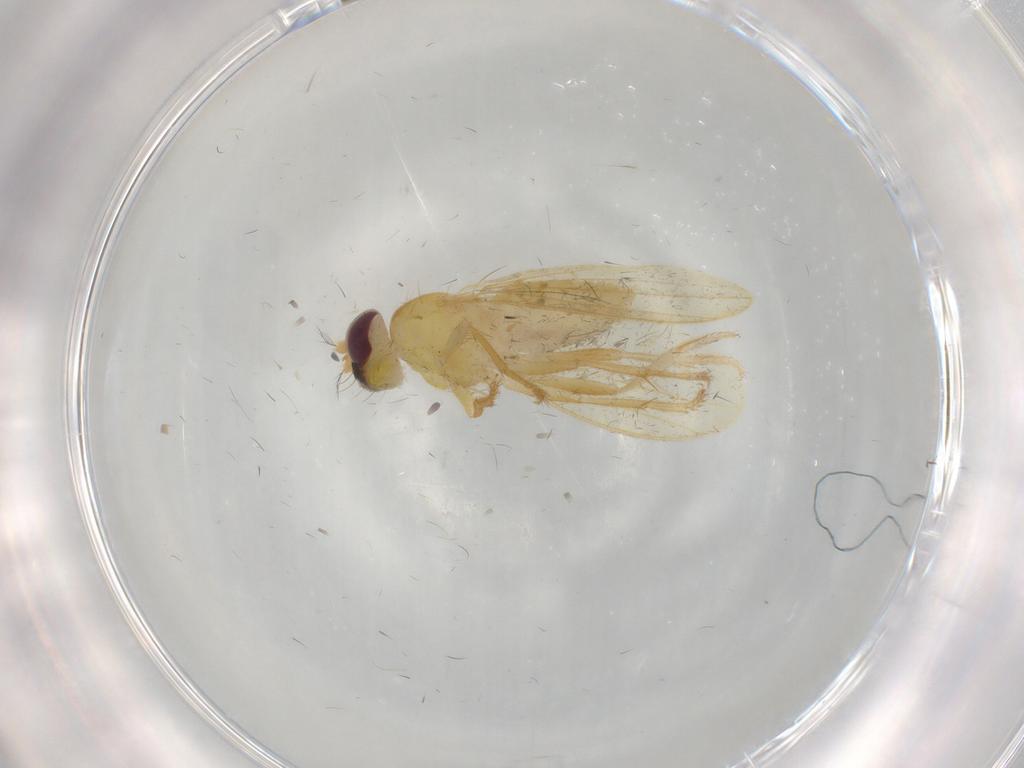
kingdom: Animalia
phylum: Arthropoda
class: Insecta
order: Diptera
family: Periscelididae
